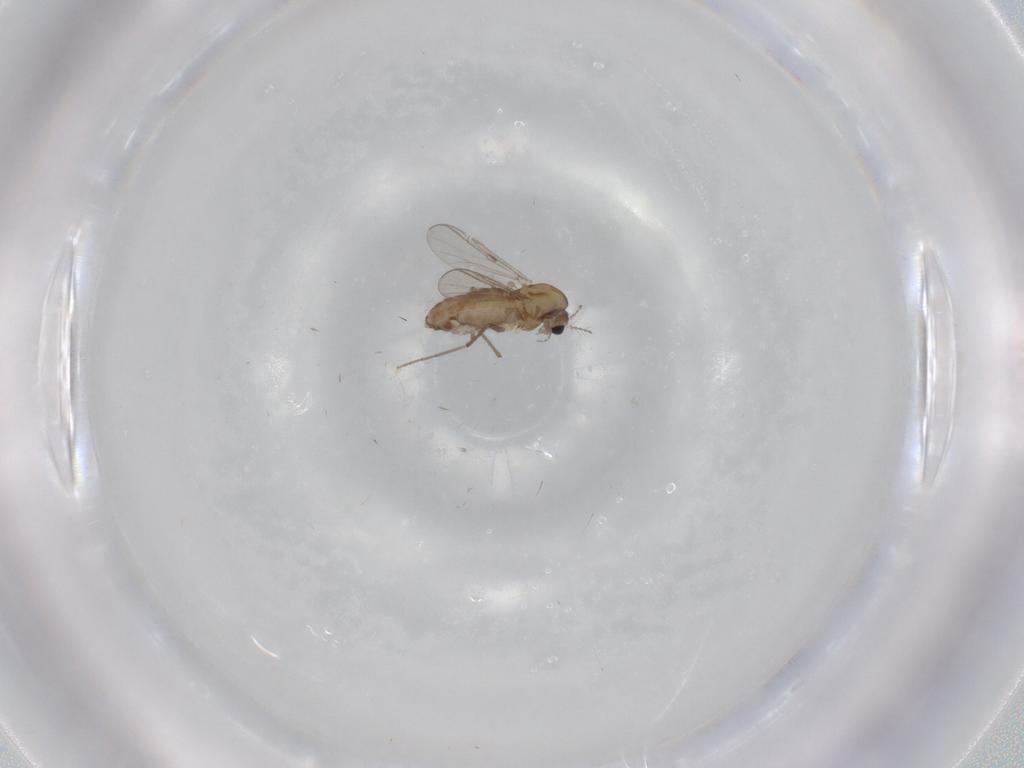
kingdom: Animalia
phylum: Arthropoda
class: Insecta
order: Diptera
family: Chironomidae
